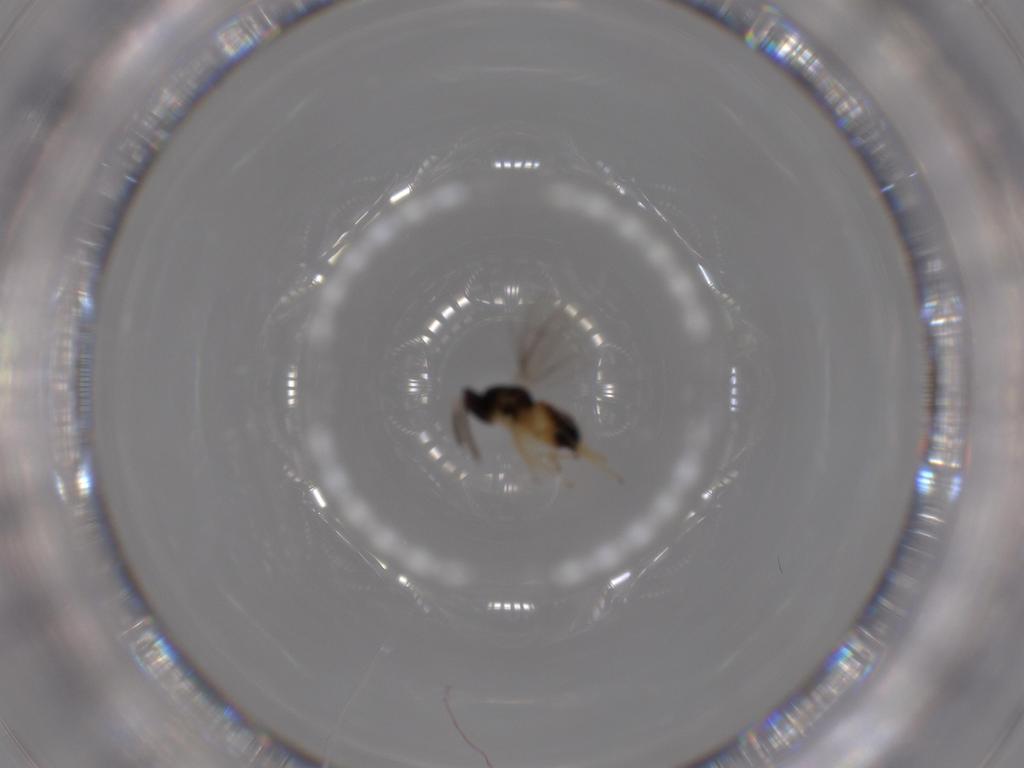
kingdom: Animalia
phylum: Arthropoda
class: Insecta
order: Hymenoptera
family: Eulophidae
